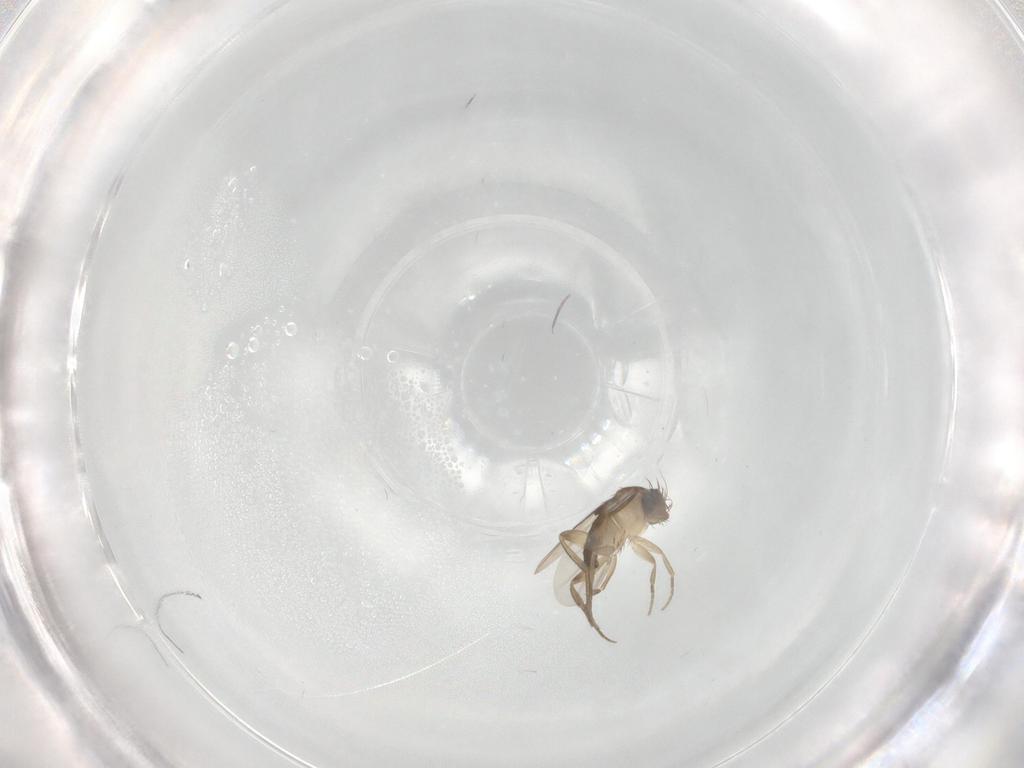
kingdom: Animalia
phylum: Arthropoda
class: Insecta
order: Diptera
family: Phoridae
